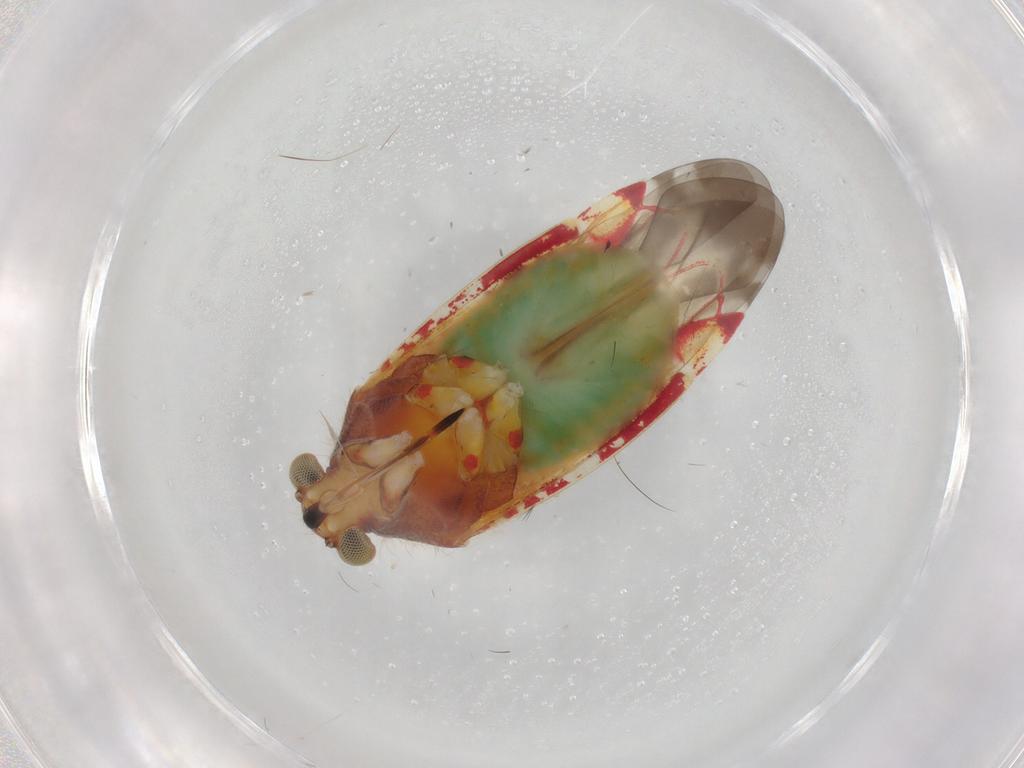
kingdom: Animalia
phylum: Arthropoda
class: Insecta
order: Hemiptera
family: Miridae
